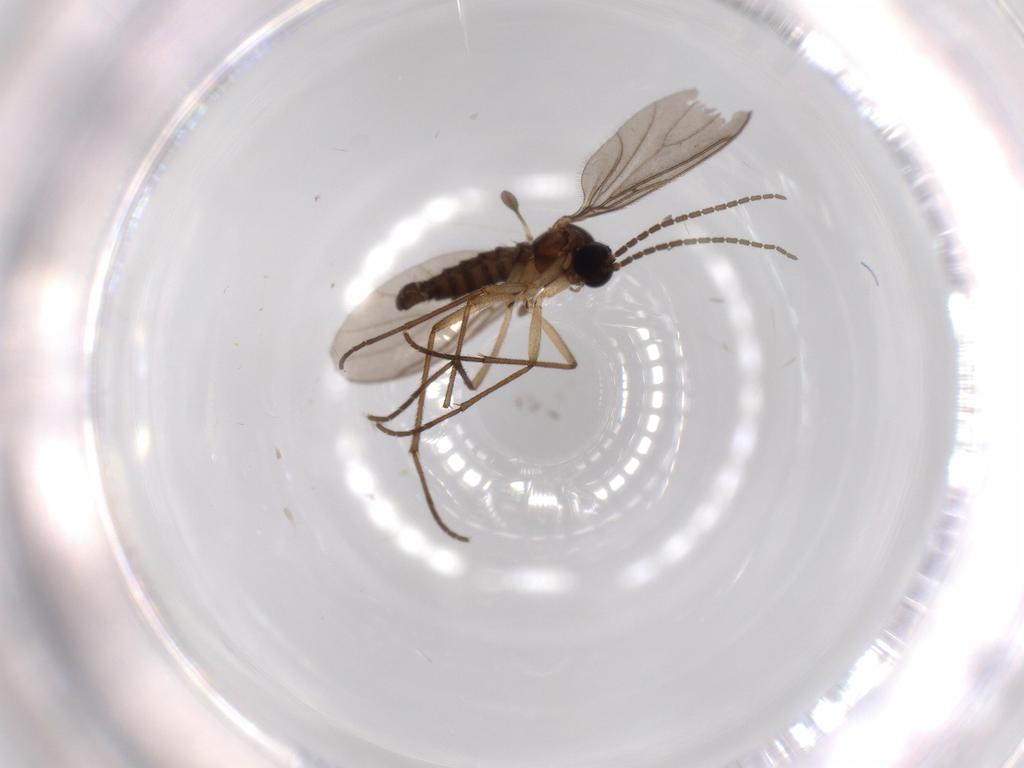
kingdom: Animalia
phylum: Arthropoda
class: Insecta
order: Diptera
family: Sciaridae
